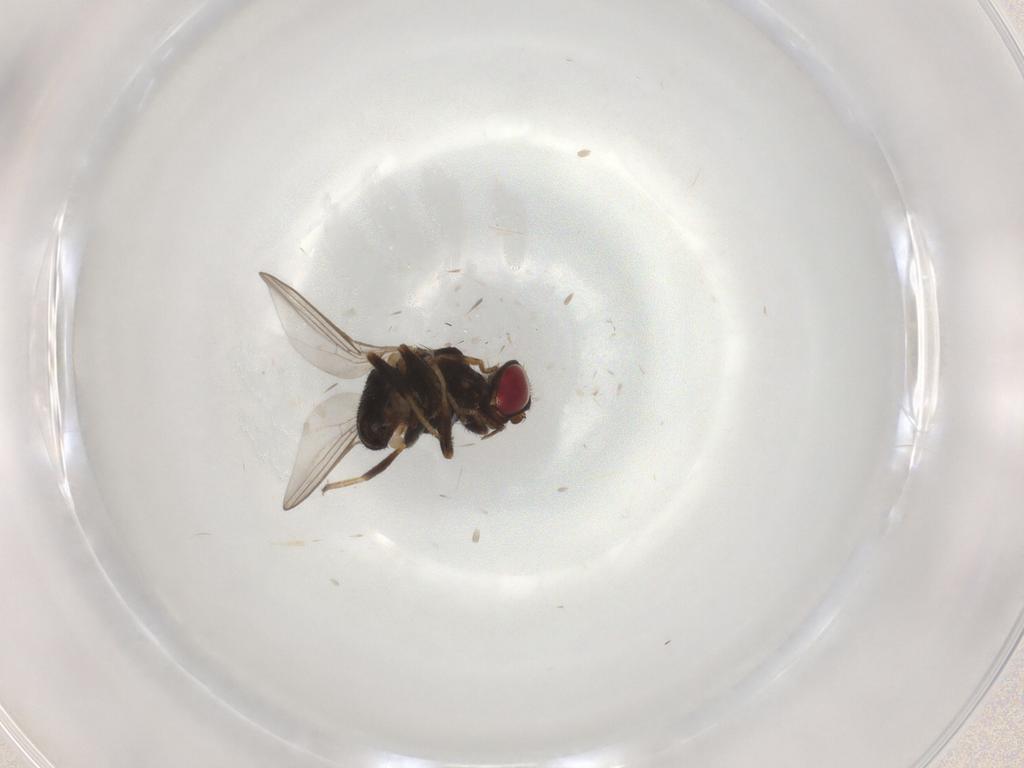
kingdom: Animalia
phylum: Arthropoda
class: Insecta
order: Diptera
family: Chloropidae
